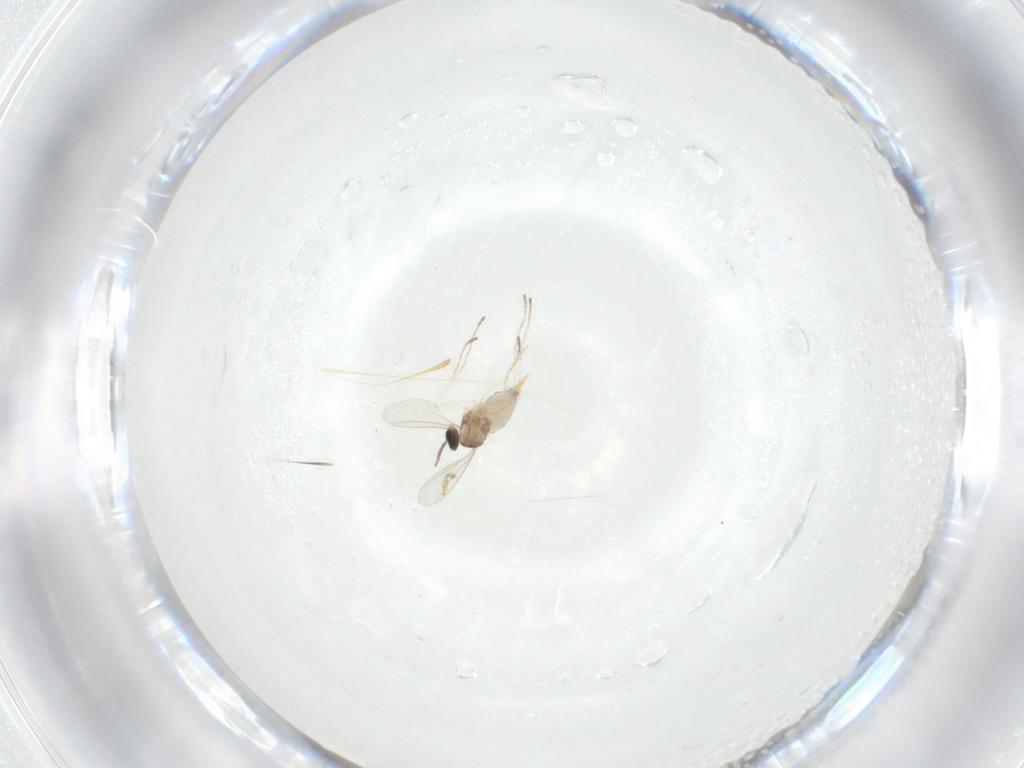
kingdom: Animalia
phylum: Arthropoda
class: Insecta
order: Diptera
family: Cecidomyiidae
